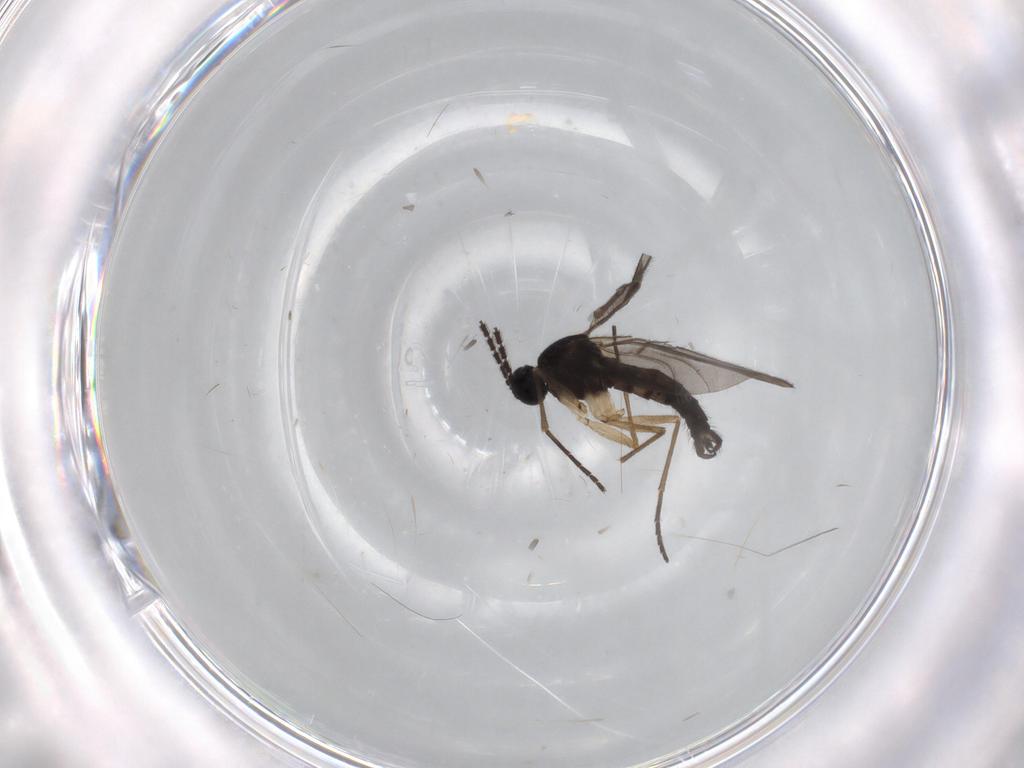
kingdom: Animalia
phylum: Arthropoda
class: Insecta
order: Diptera
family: Sciaridae
